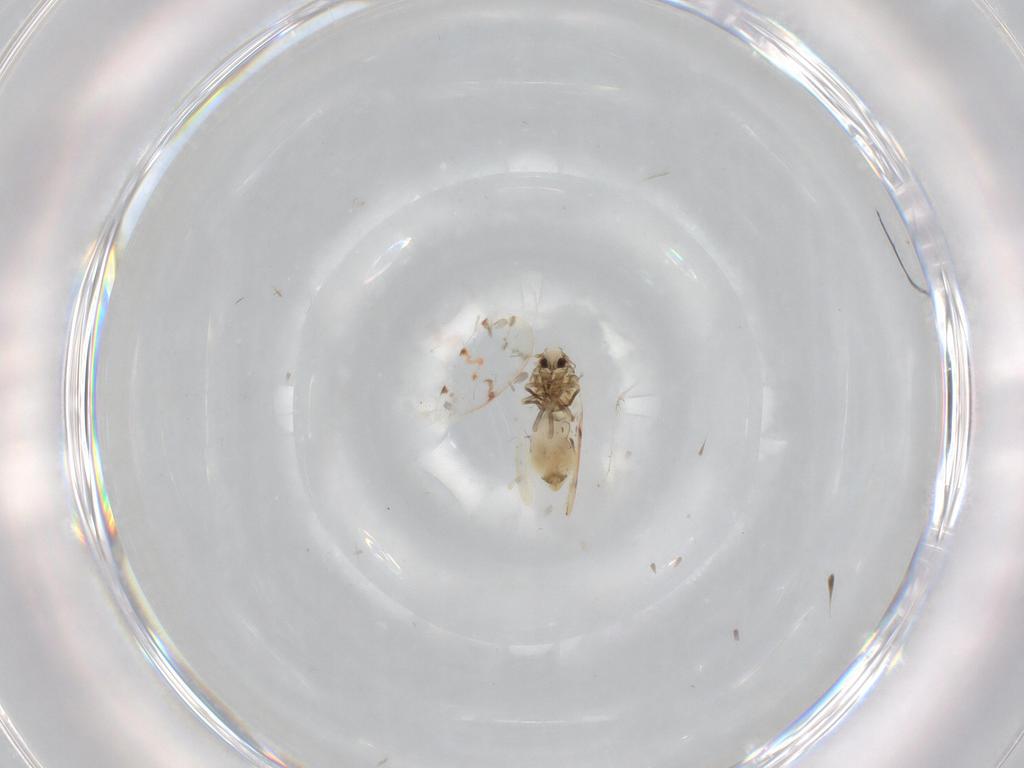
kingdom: Animalia
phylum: Arthropoda
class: Insecta
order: Hemiptera
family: Aleyrodidae
